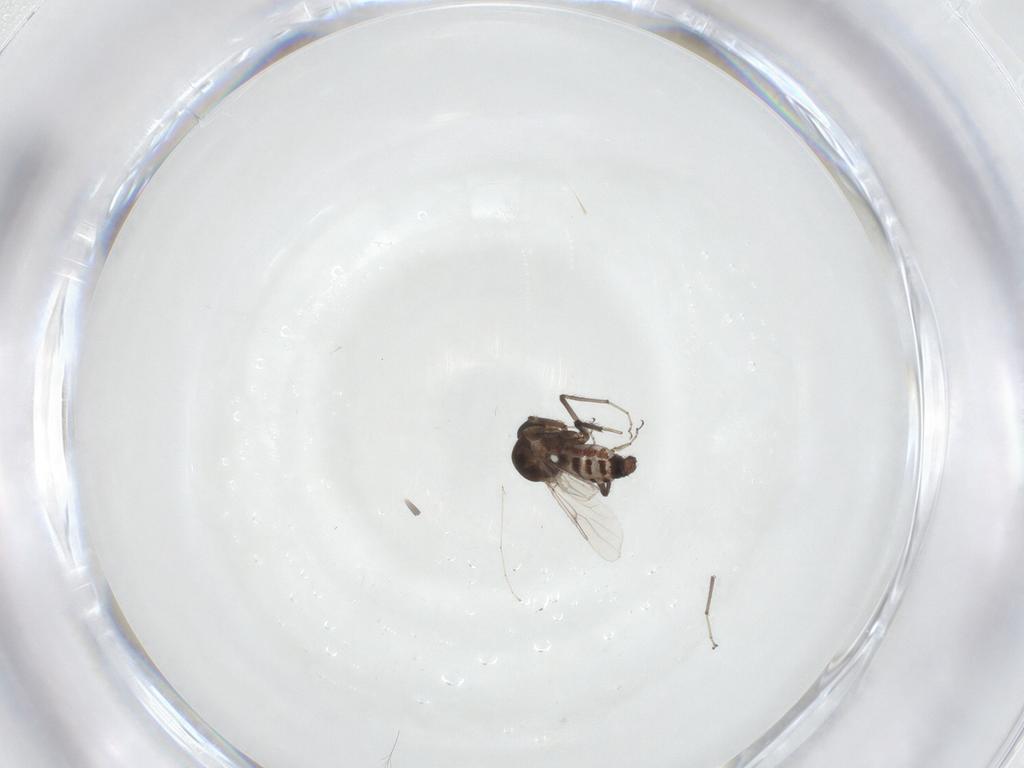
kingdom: Animalia
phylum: Arthropoda
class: Insecta
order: Diptera
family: Ceratopogonidae
